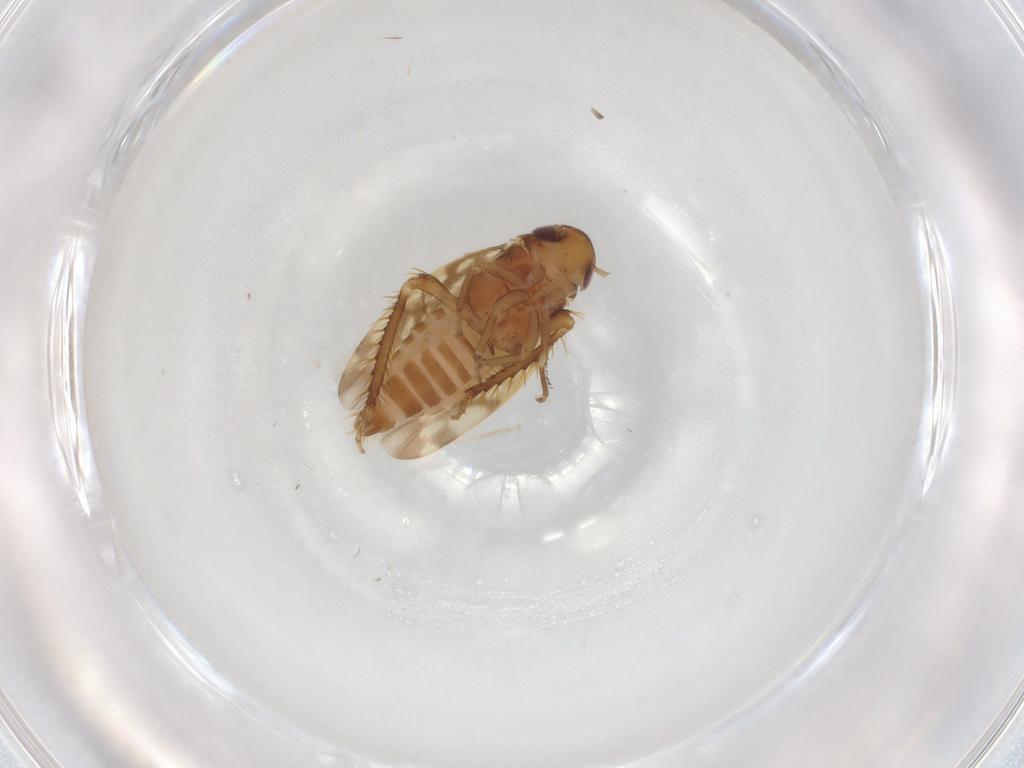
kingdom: Animalia
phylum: Arthropoda
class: Insecta
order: Hemiptera
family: Cicadellidae
